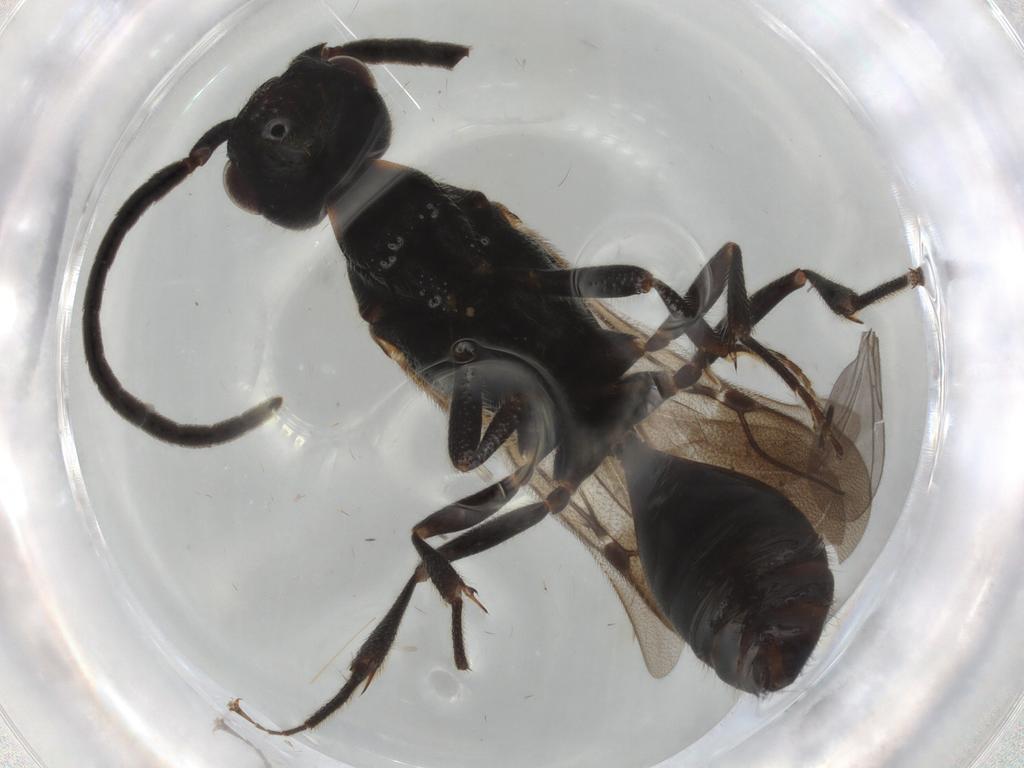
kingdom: Animalia
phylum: Arthropoda
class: Insecta
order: Hymenoptera
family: Bethylidae
